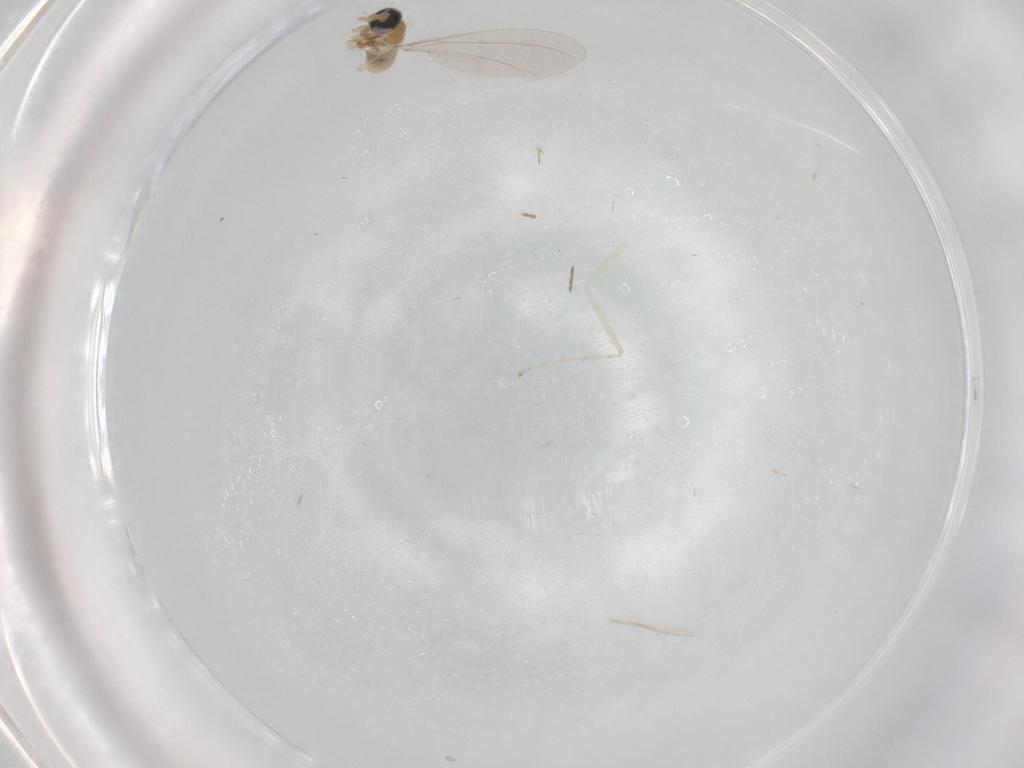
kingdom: Animalia
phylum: Arthropoda
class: Insecta
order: Diptera
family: Cecidomyiidae
